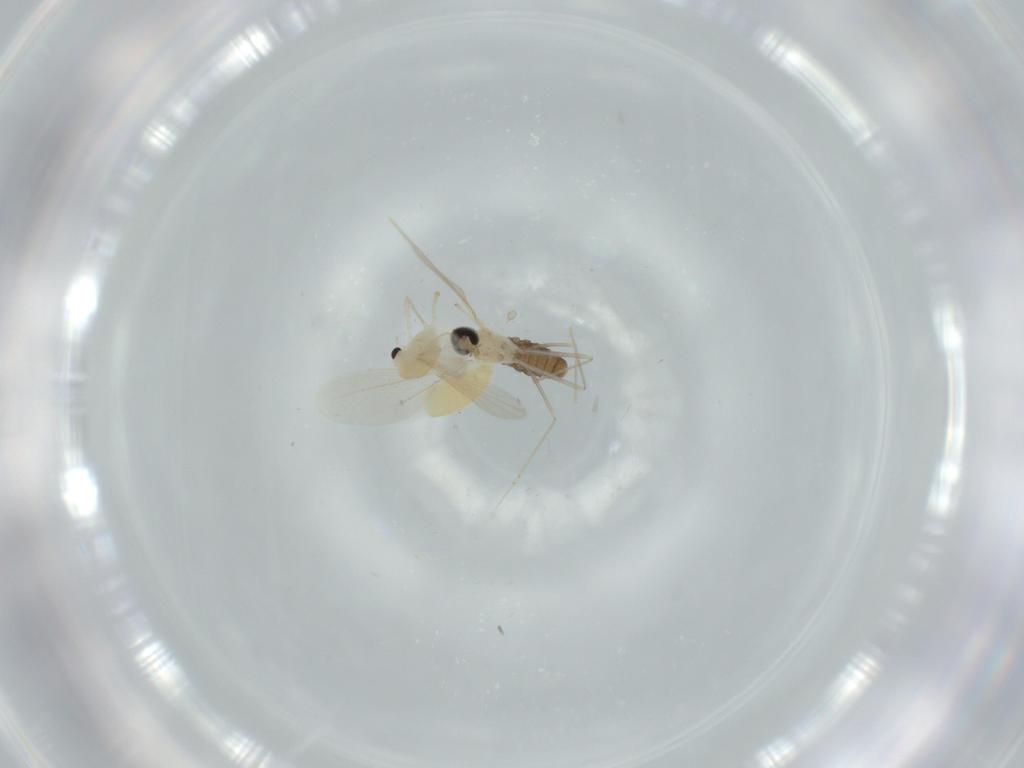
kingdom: Animalia
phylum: Arthropoda
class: Insecta
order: Diptera
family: Chironomidae
